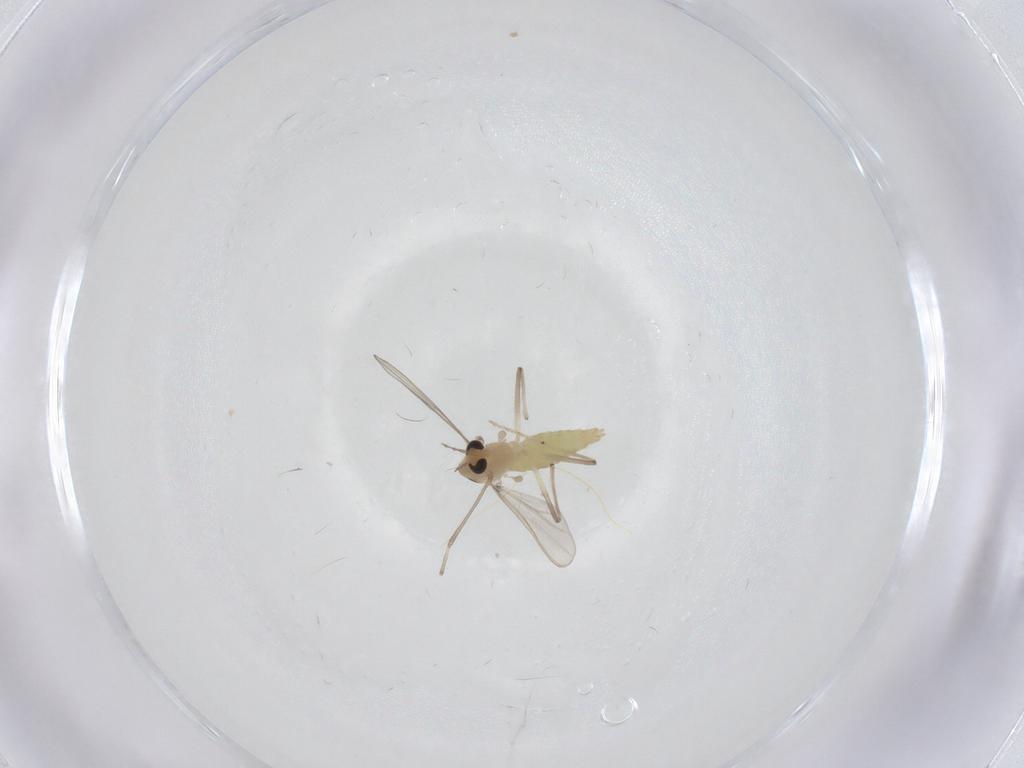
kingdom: Animalia
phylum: Arthropoda
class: Insecta
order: Diptera
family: Chironomidae
